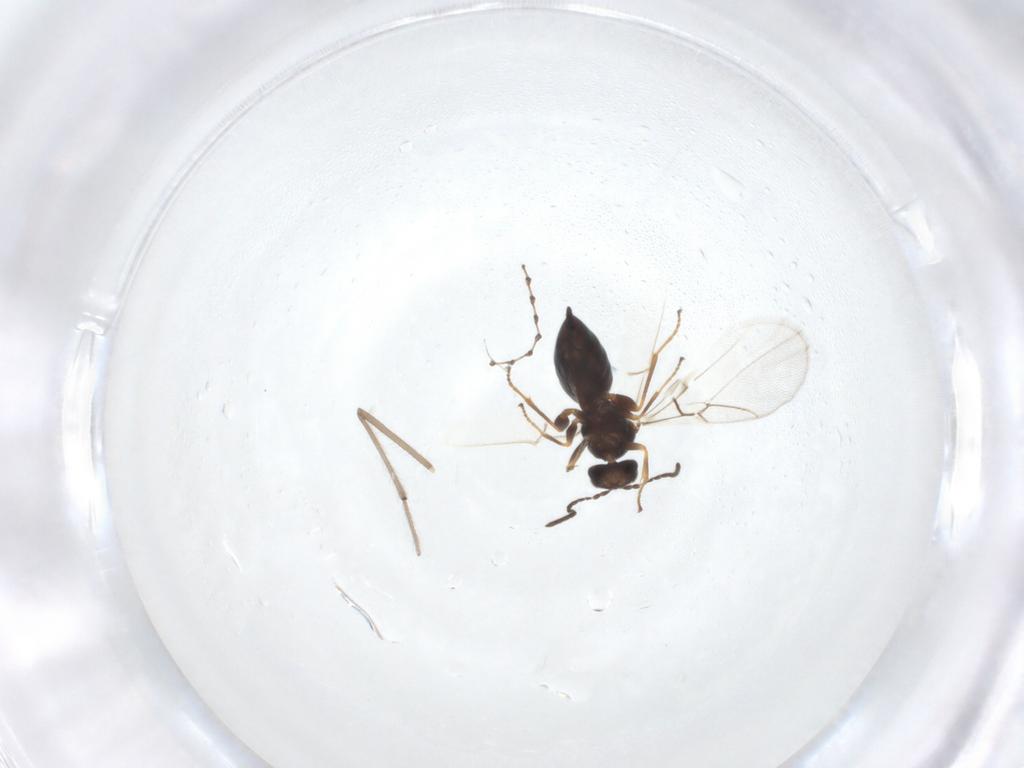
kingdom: Animalia
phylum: Arthropoda
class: Insecta
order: Hymenoptera
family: Cynipidae
